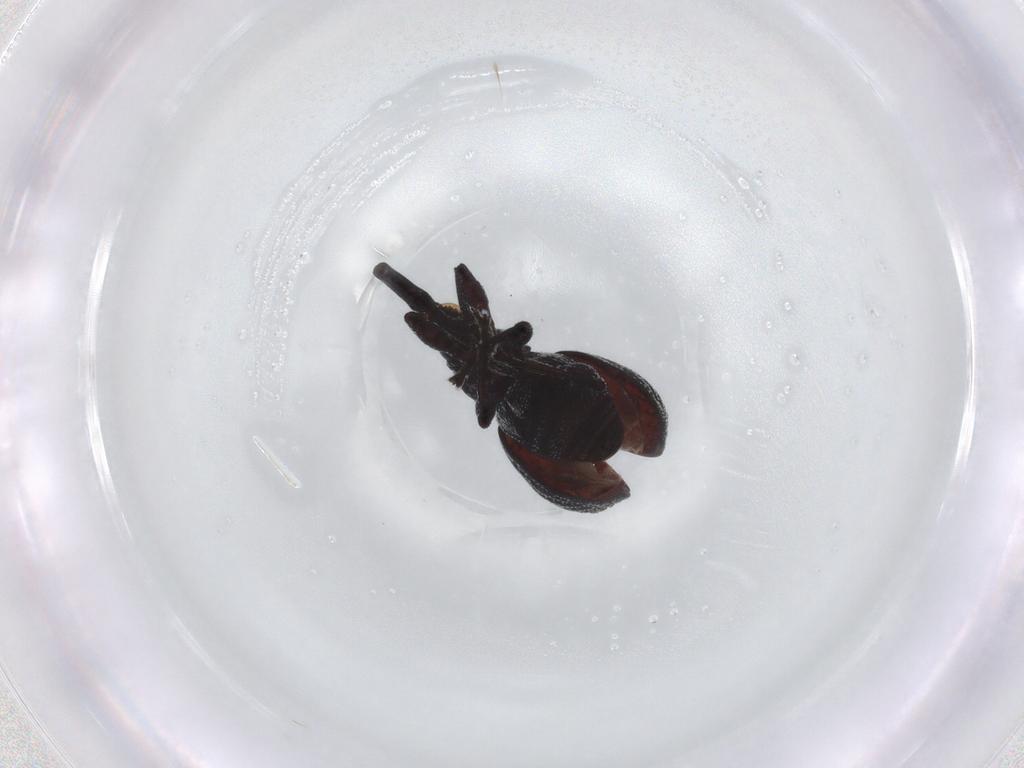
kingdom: Animalia
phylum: Arthropoda
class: Insecta
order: Coleoptera
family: Brentidae
